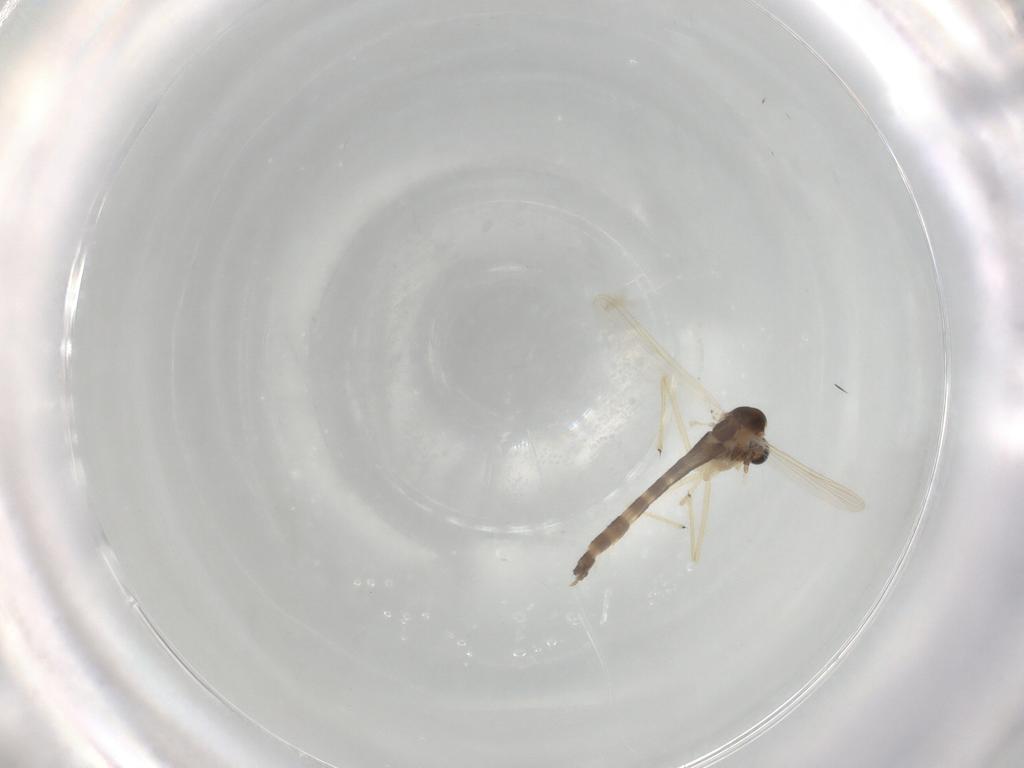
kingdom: Animalia
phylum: Arthropoda
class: Insecta
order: Diptera
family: Chironomidae
